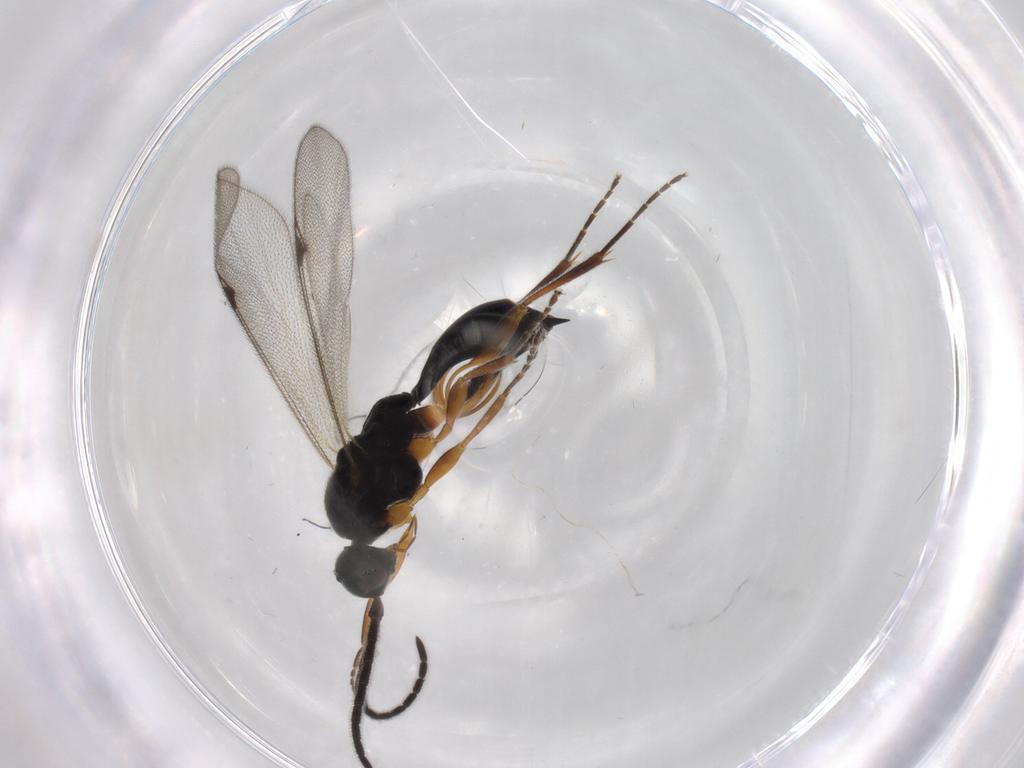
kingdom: Animalia
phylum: Arthropoda
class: Insecta
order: Hymenoptera
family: Proctotrupidae
